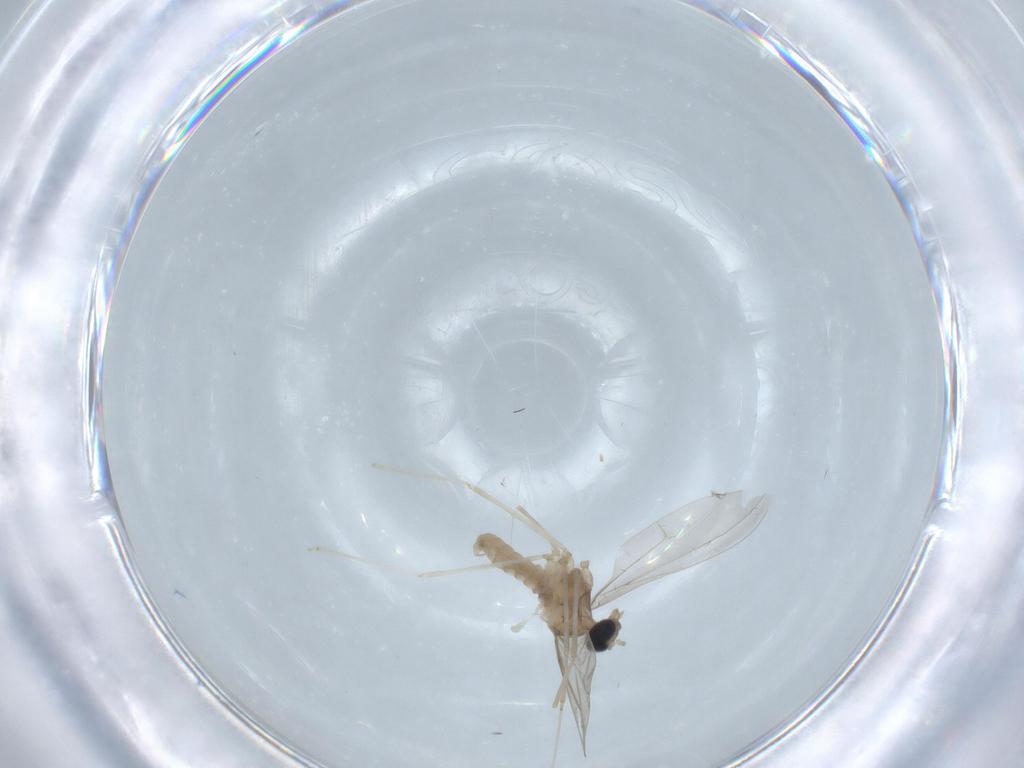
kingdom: Animalia
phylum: Arthropoda
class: Insecta
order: Diptera
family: Cecidomyiidae
